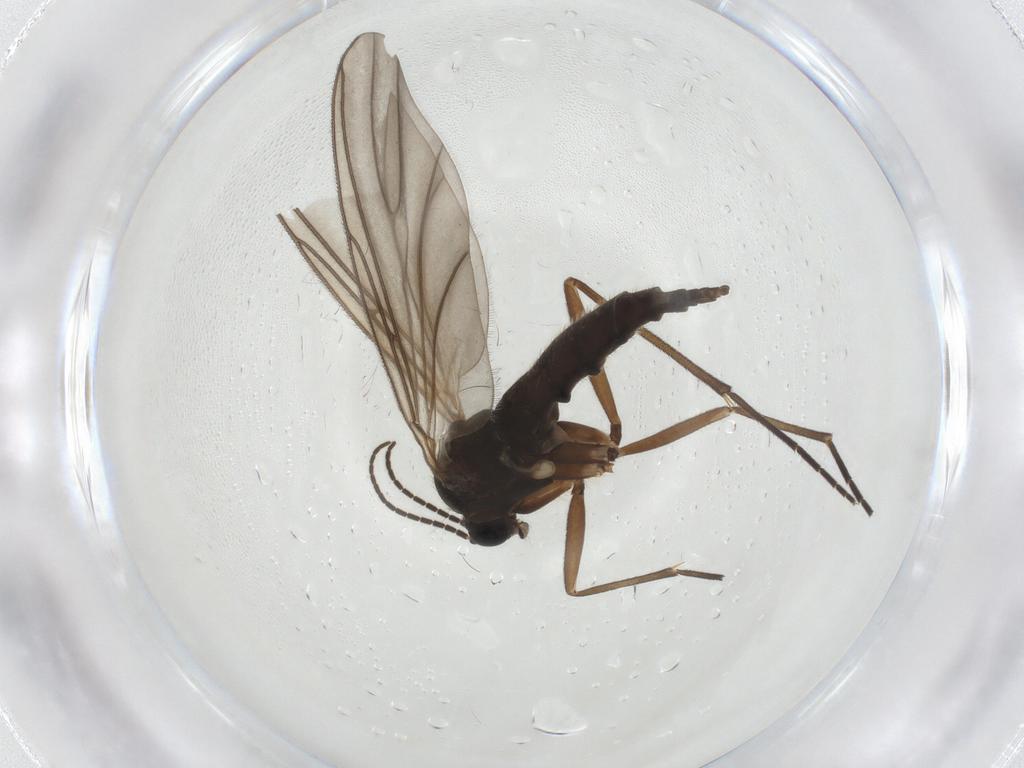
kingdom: Animalia
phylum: Arthropoda
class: Insecta
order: Diptera
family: Sciaridae
